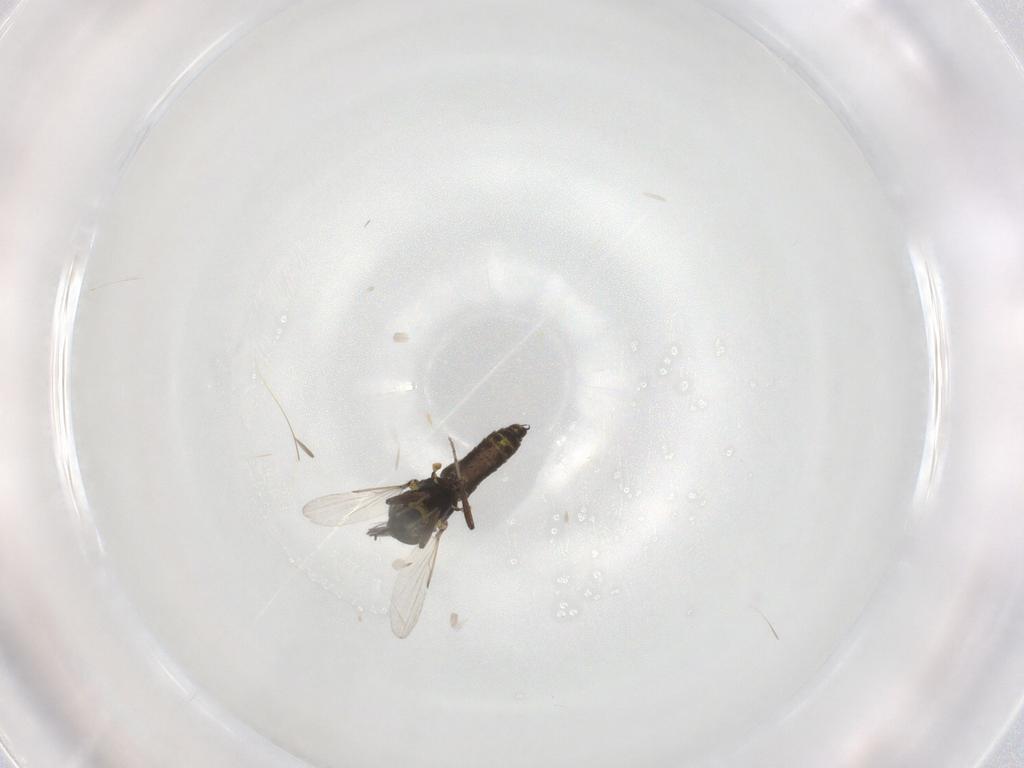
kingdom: Animalia
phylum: Arthropoda
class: Insecta
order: Diptera
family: Ceratopogonidae
